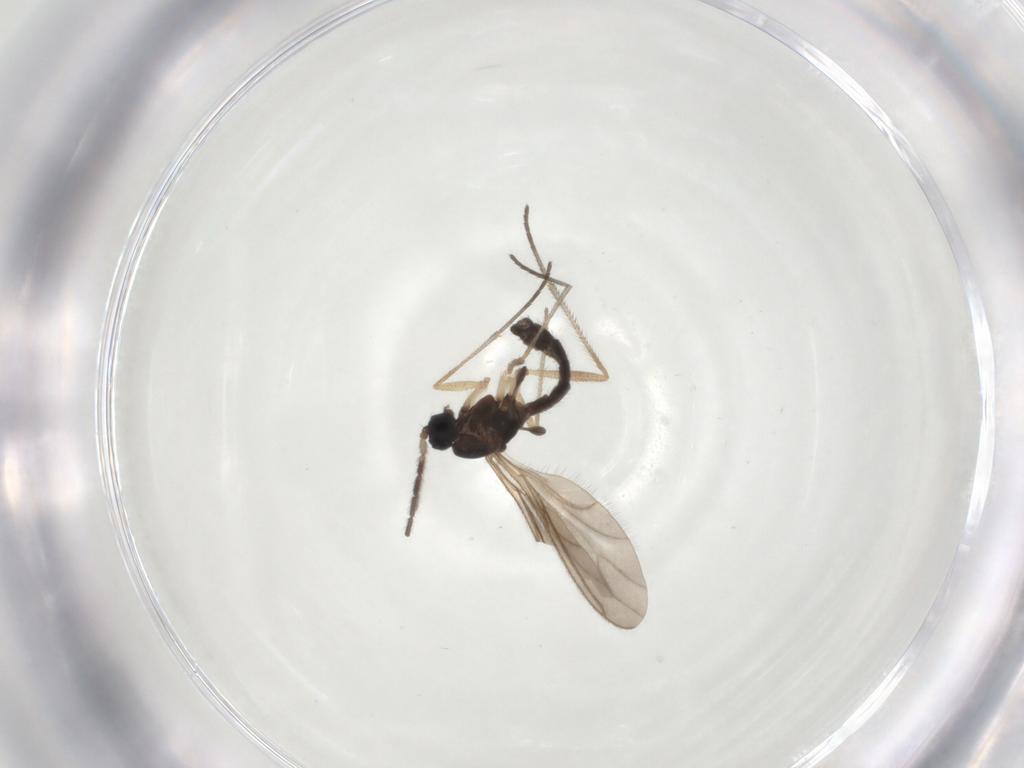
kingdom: Animalia
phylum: Arthropoda
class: Insecta
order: Diptera
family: Sciaridae
